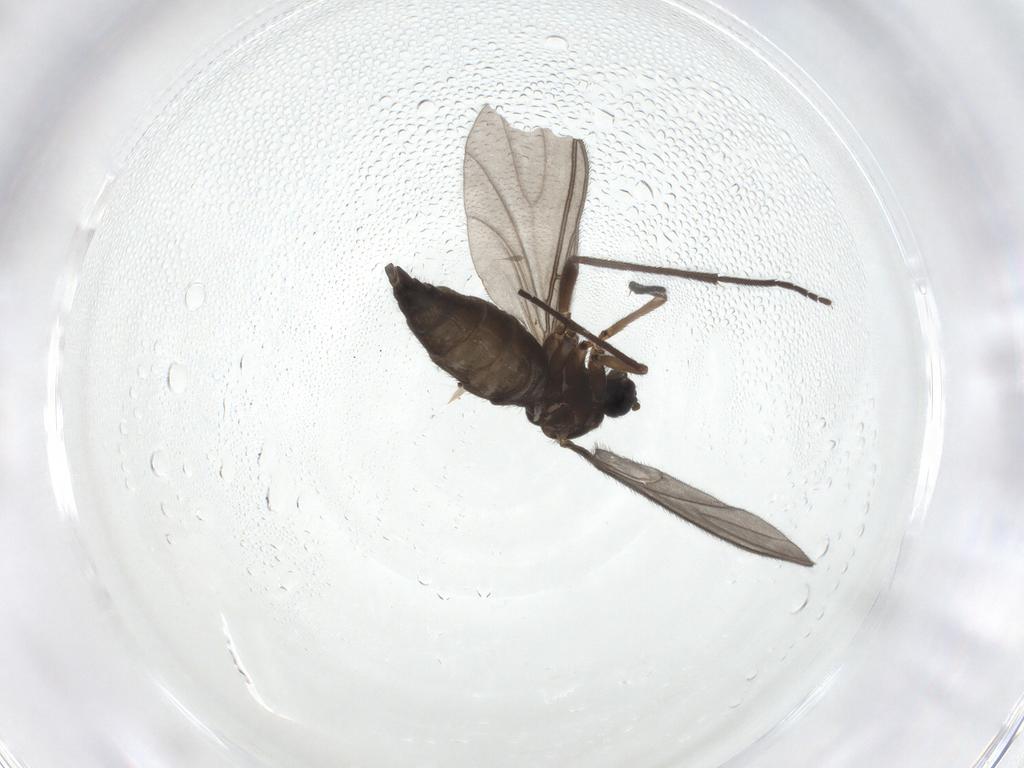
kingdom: Animalia
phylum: Arthropoda
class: Insecta
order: Diptera
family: Sciaridae
